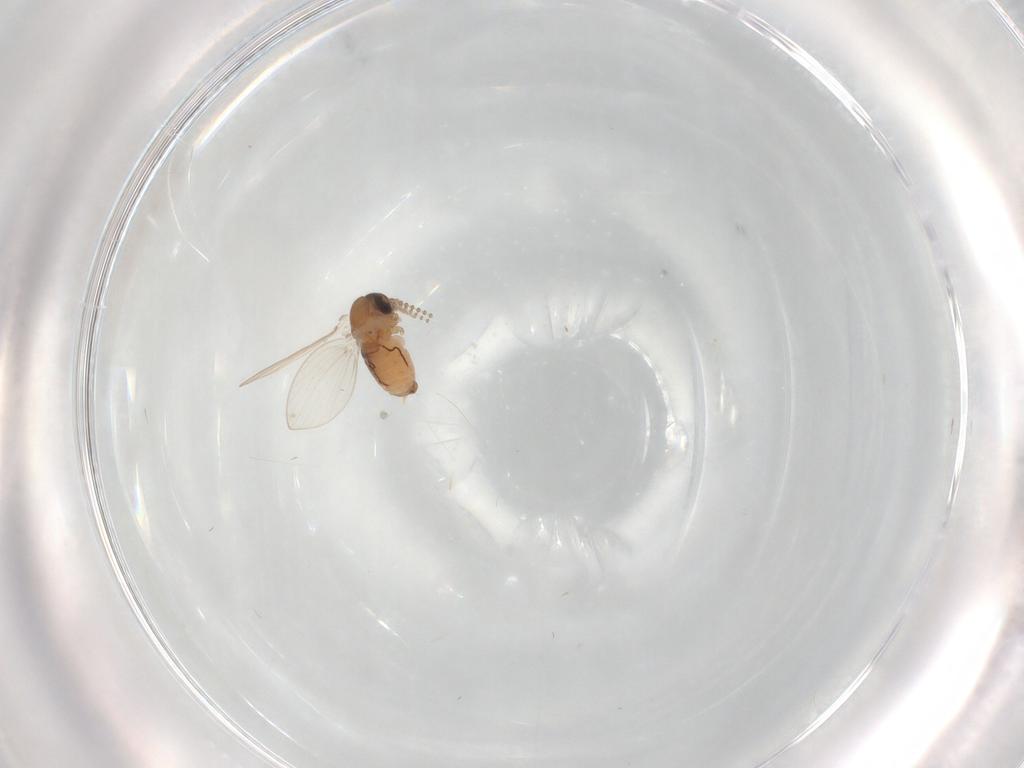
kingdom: Animalia
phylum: Arthropoda
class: Insecta
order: Diptera
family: Psychodidae
